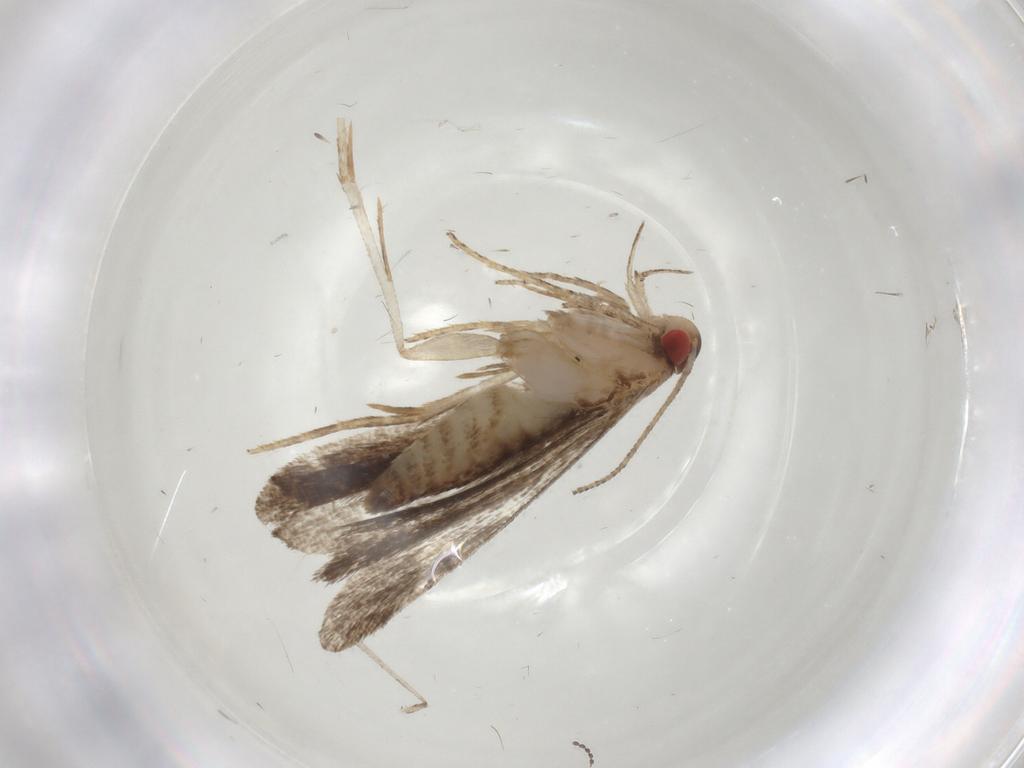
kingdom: Animalia
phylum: Arthropoda
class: Insecta
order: Lepidoptera
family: Gelechiidae
